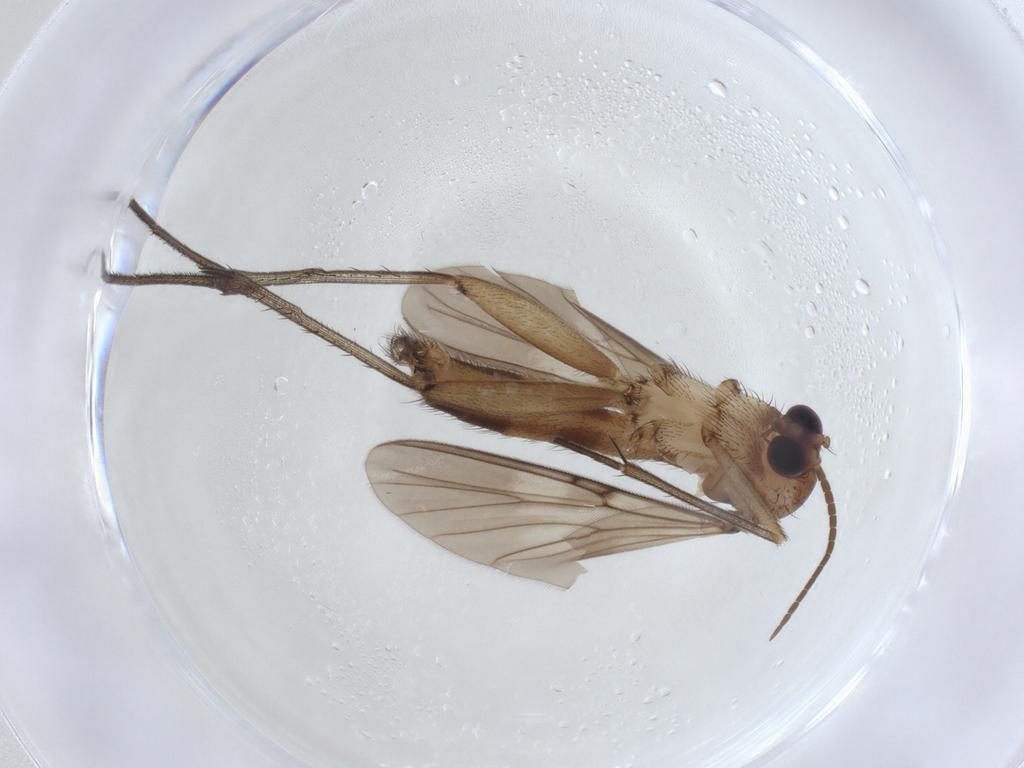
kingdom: Animalia
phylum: Arthropoda
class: Insecta
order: Diptera
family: Mycetophilidae
